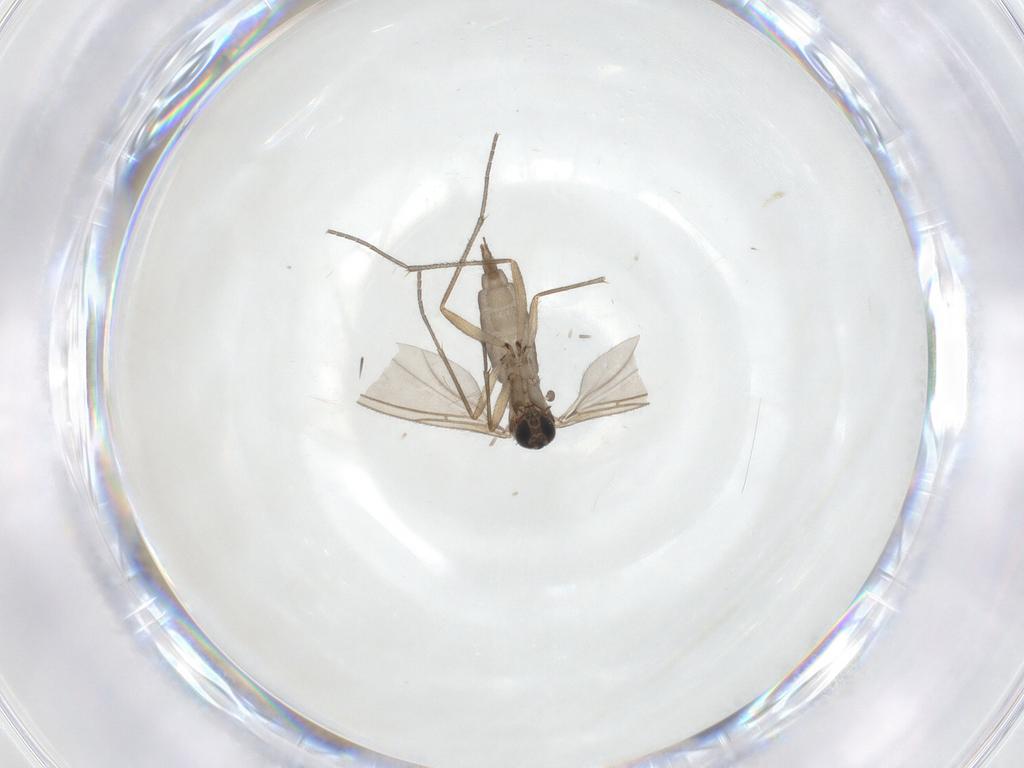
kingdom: Animalia
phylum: Arthropoda
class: Insecta
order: Diptera
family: Sciaridae
